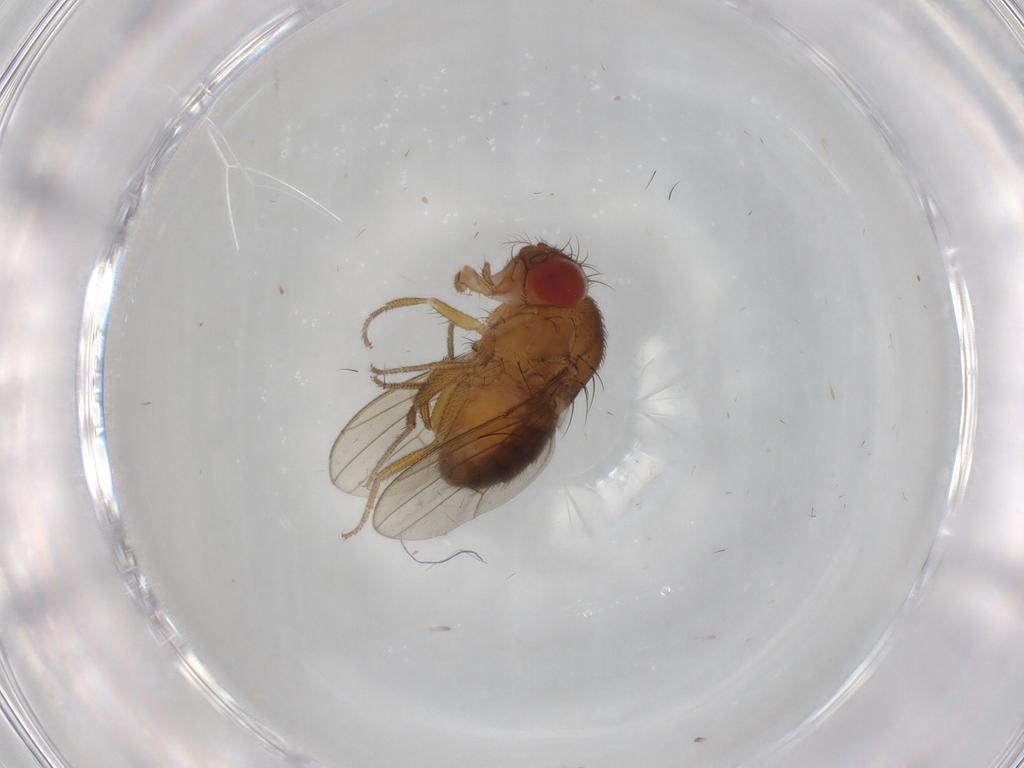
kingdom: Animalia
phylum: Arthropoda
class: Insecta
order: Diptera
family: Drosophilidae
